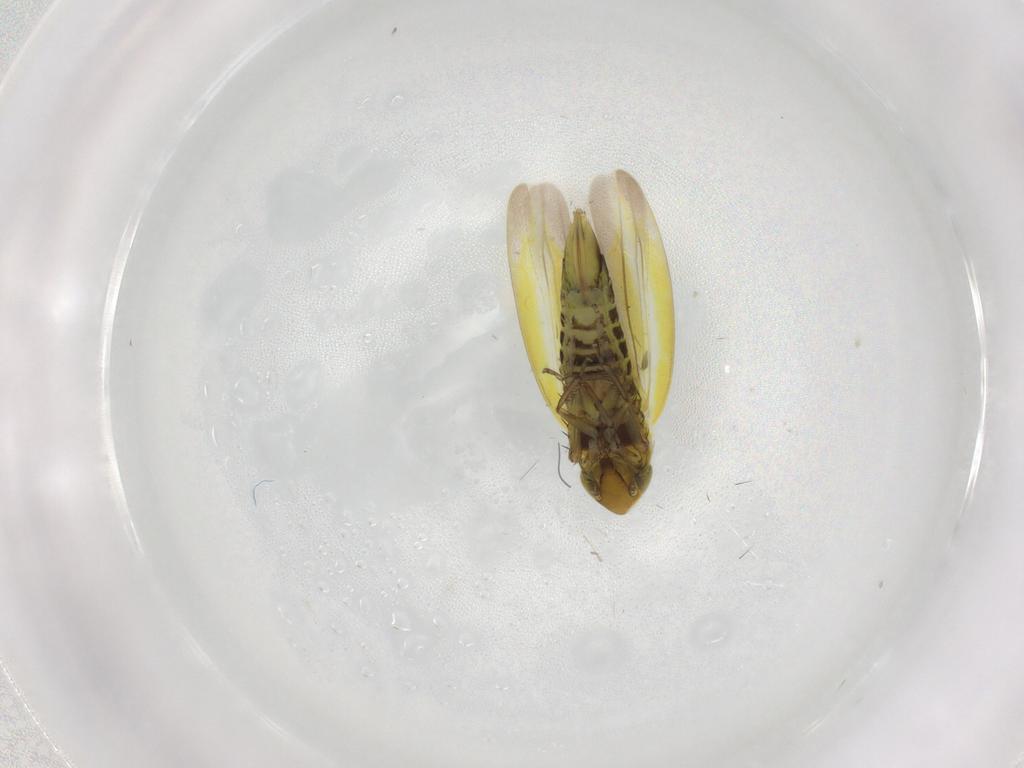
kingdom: Animalia
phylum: Arthropoda
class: Insecta
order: Hemiptera
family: Cicadellidae
